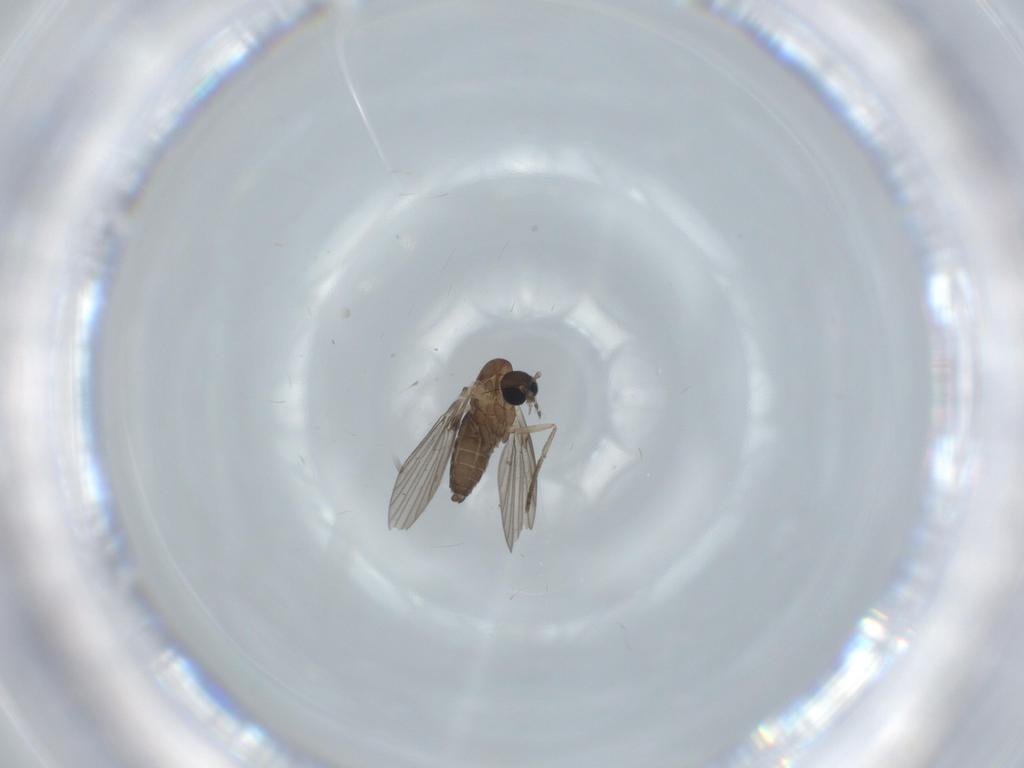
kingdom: Animalia
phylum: Arthropoda
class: Insecta
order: Diptera
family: Psychodidae
